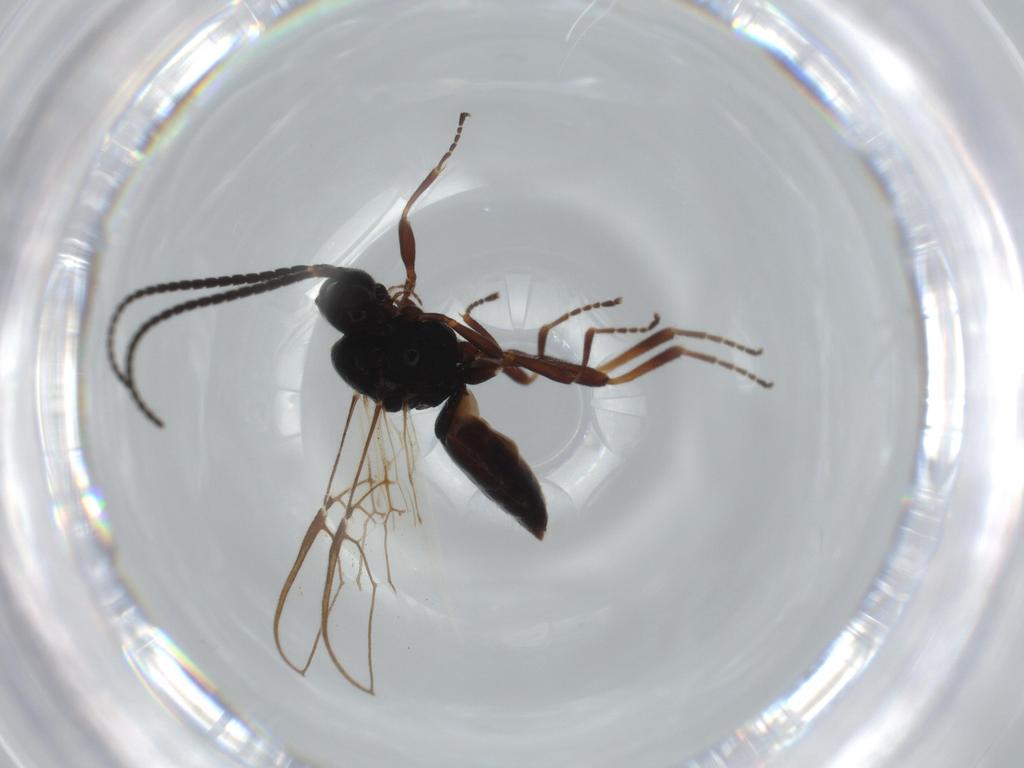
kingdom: Animalia
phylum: Arthropoda
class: Insecta
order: Hymenoptera
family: Braconidae
